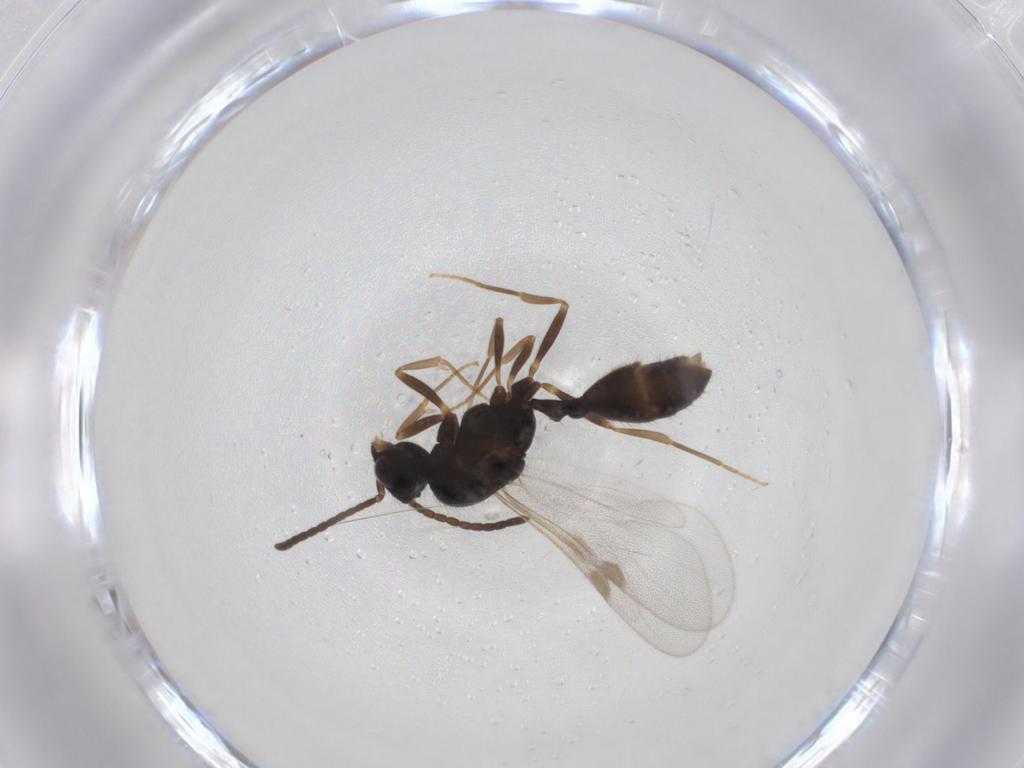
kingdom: Animalia
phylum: Arthropoda
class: Insecta
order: Hymenoptera
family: Formicidae
